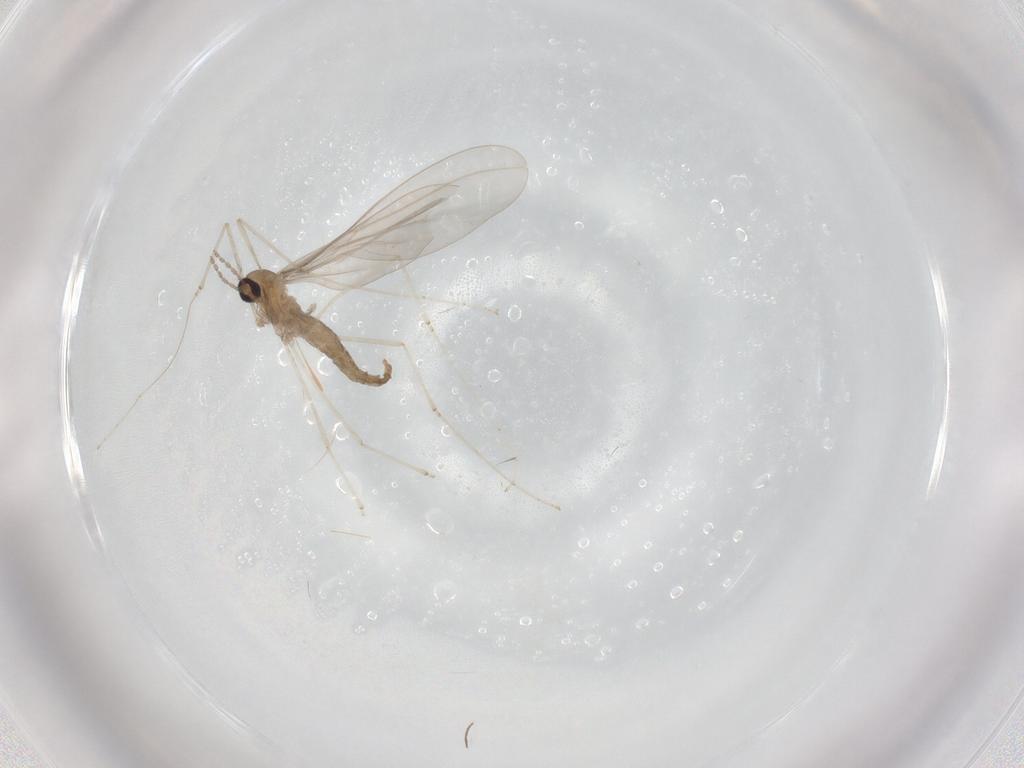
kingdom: Animalia
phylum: Arthropoda
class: Insecta
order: Diptera
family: Cecidomyiidae
